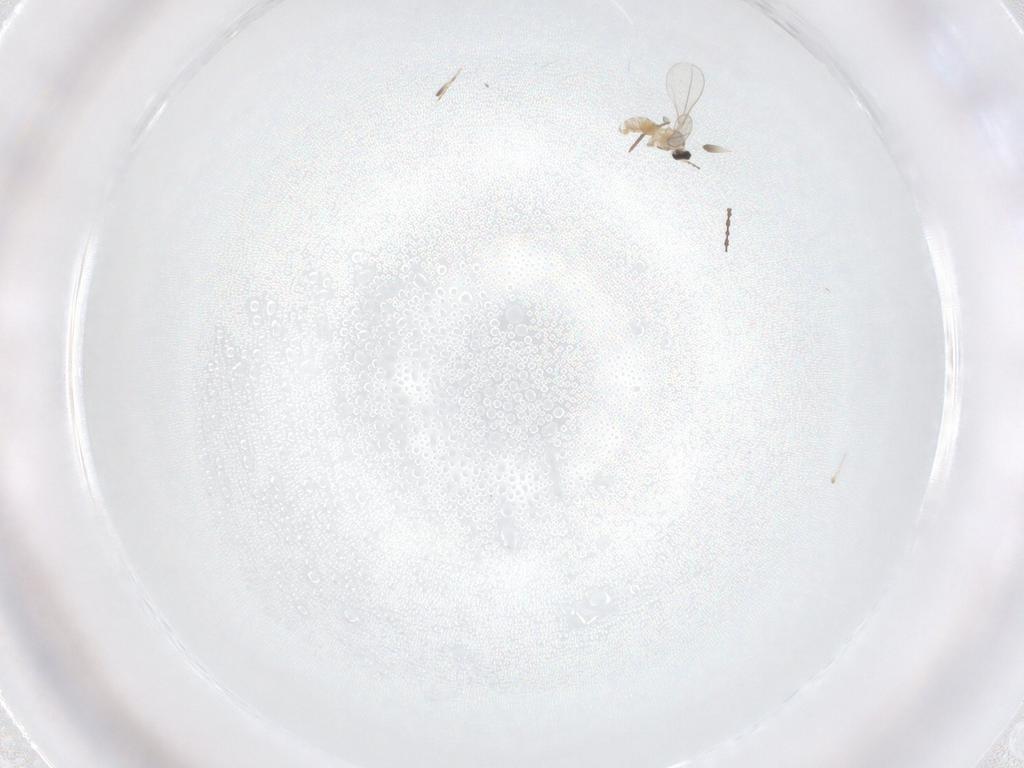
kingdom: Animalia
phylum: Arthropoda
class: Insecta
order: Diptera
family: Cecidomyiidae
